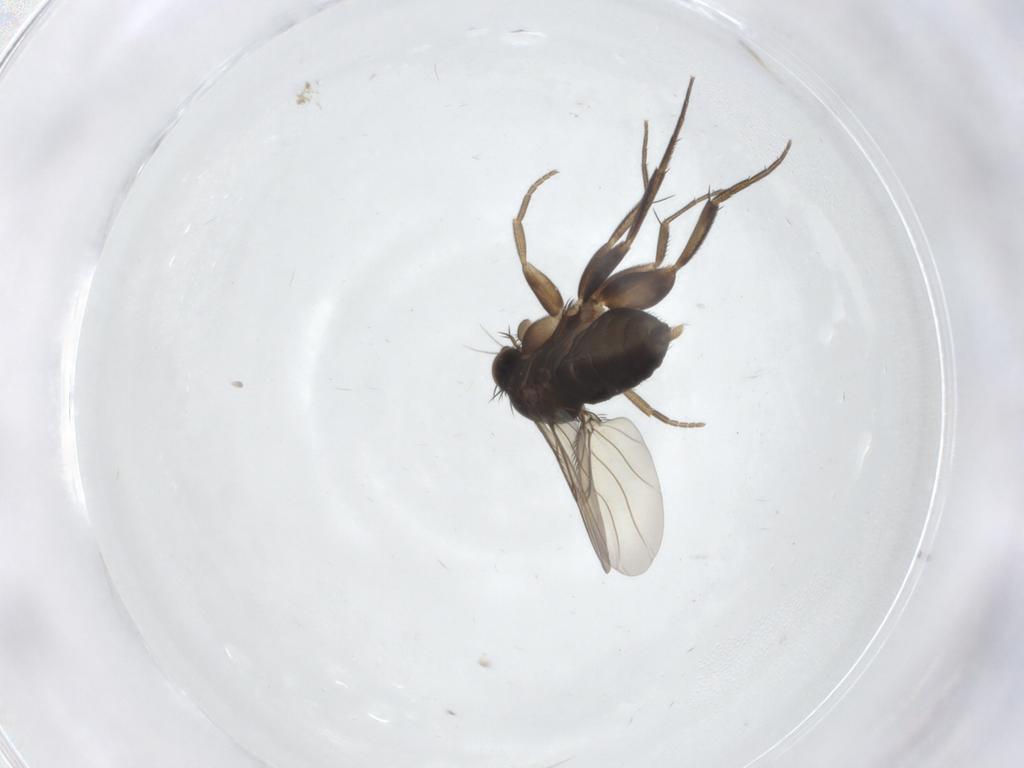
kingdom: Animalia
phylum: Arthropoda
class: Insecta
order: Diptera
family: Phoridae
